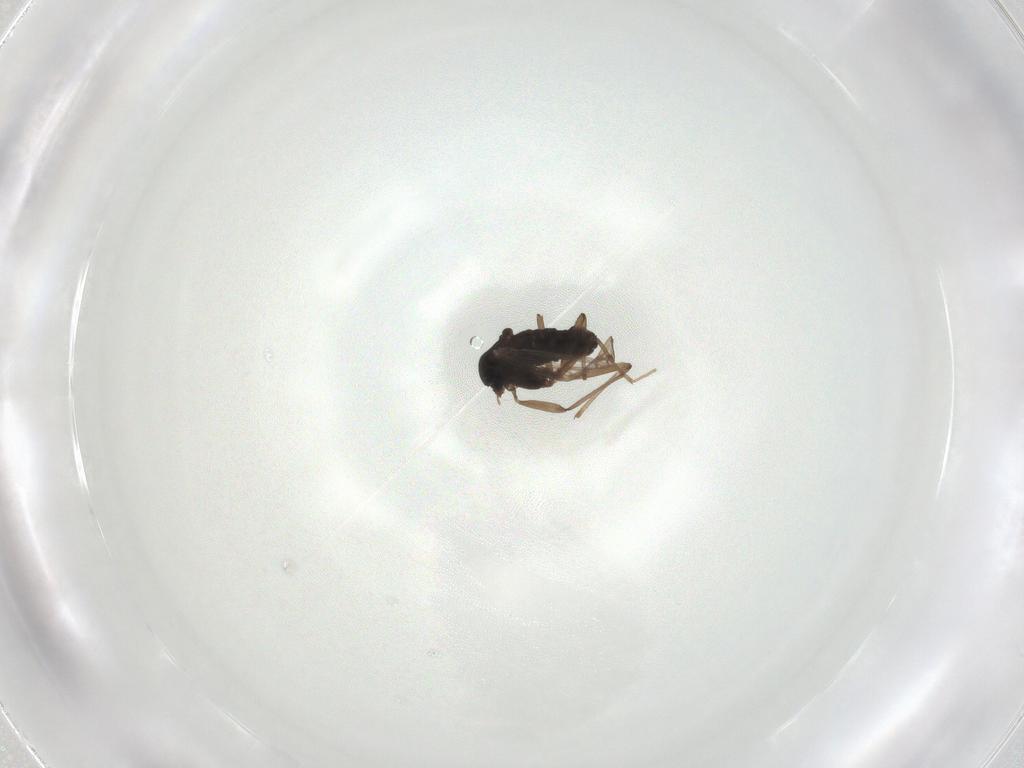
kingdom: Animalia
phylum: Arthropoda
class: Insecta
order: Diptera
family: Chironomidae
